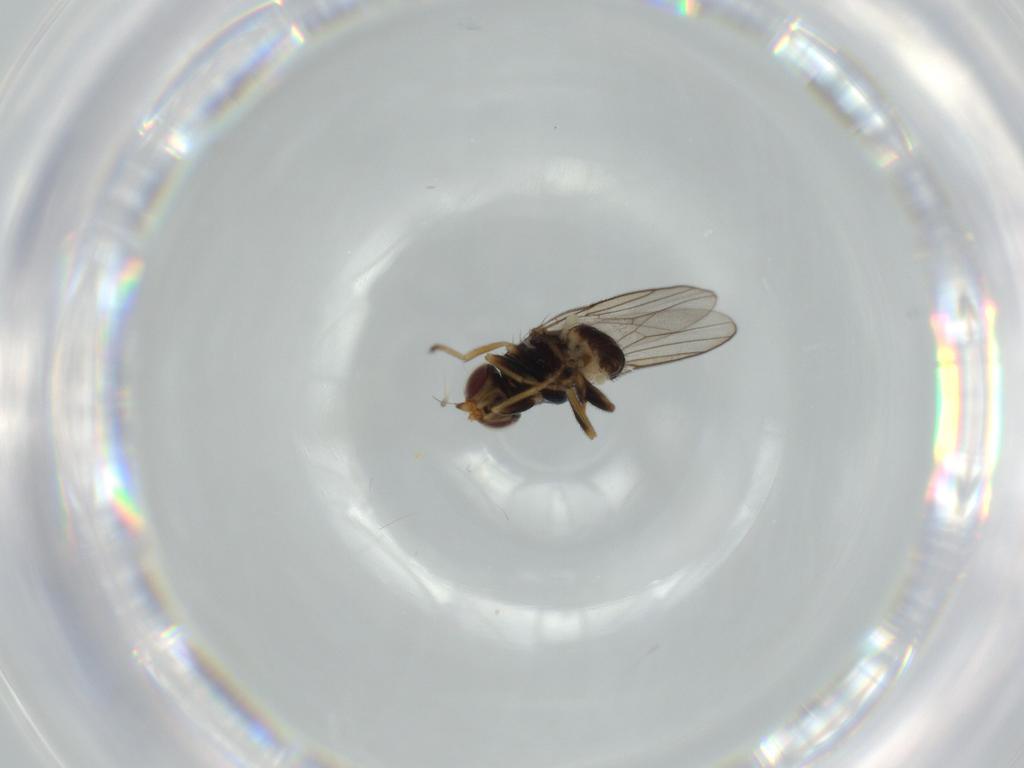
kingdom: Animalia
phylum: Arthropoda
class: Insecta
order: Diptera
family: Chloropidae
